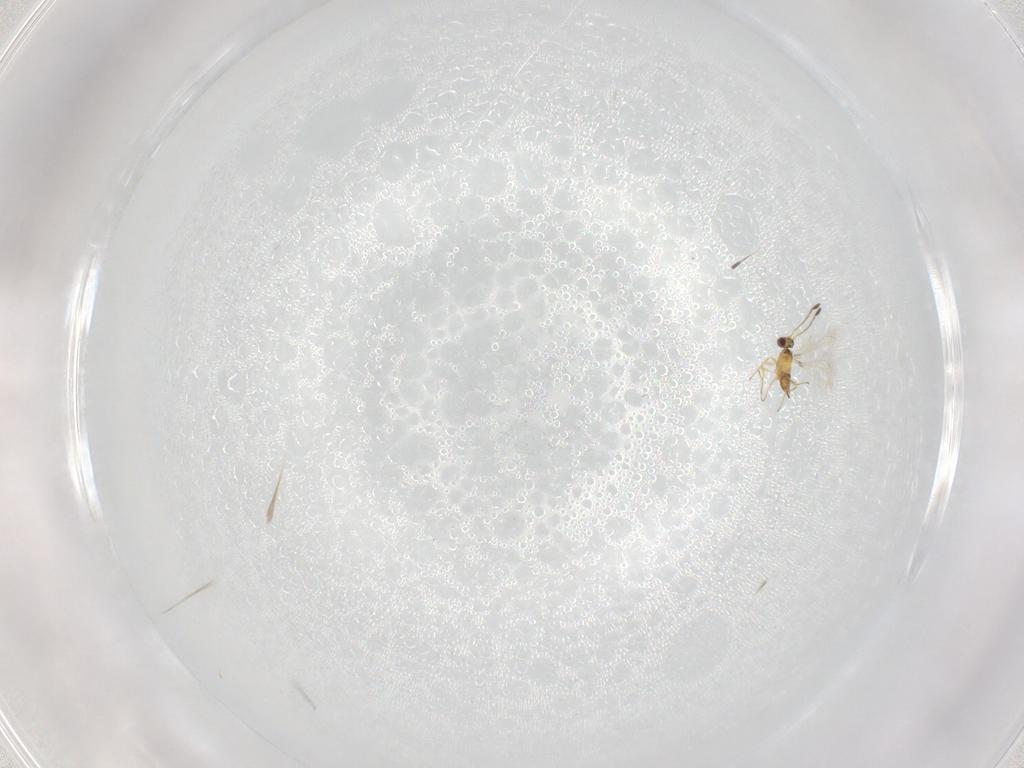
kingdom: Animalia
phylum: Arthropoda
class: Insecta
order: Hymenoptera
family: Mymaridae
